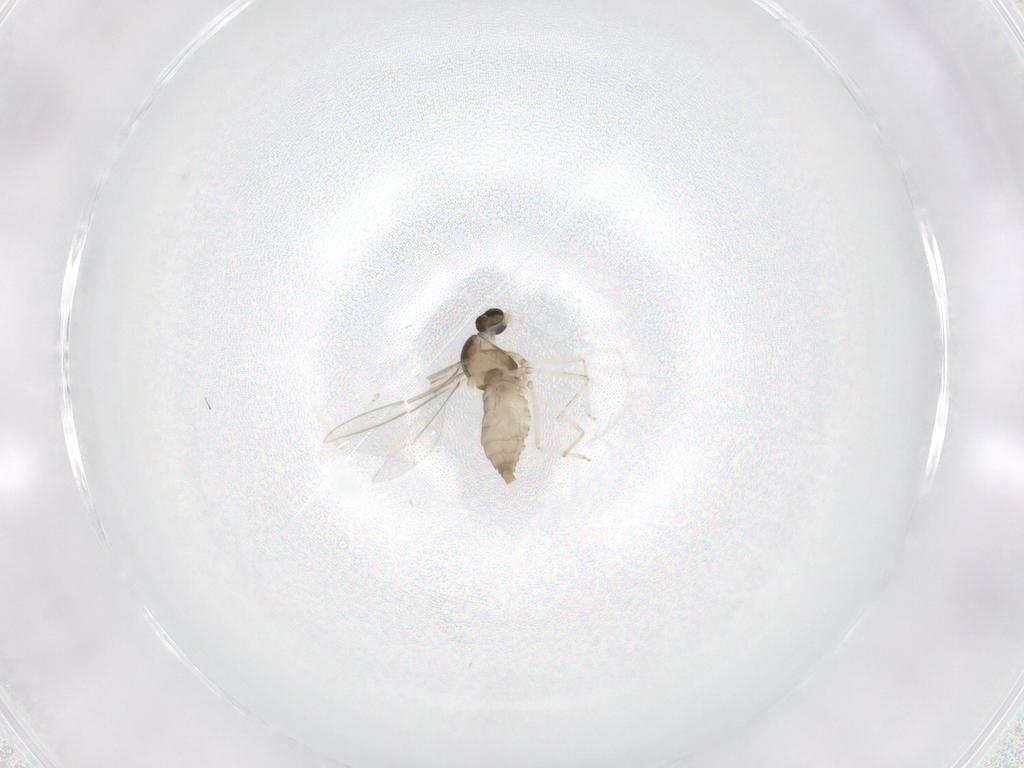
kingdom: Animalia
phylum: Arthropoda
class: Insecta
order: Diptera
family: Cecidomyiidae
